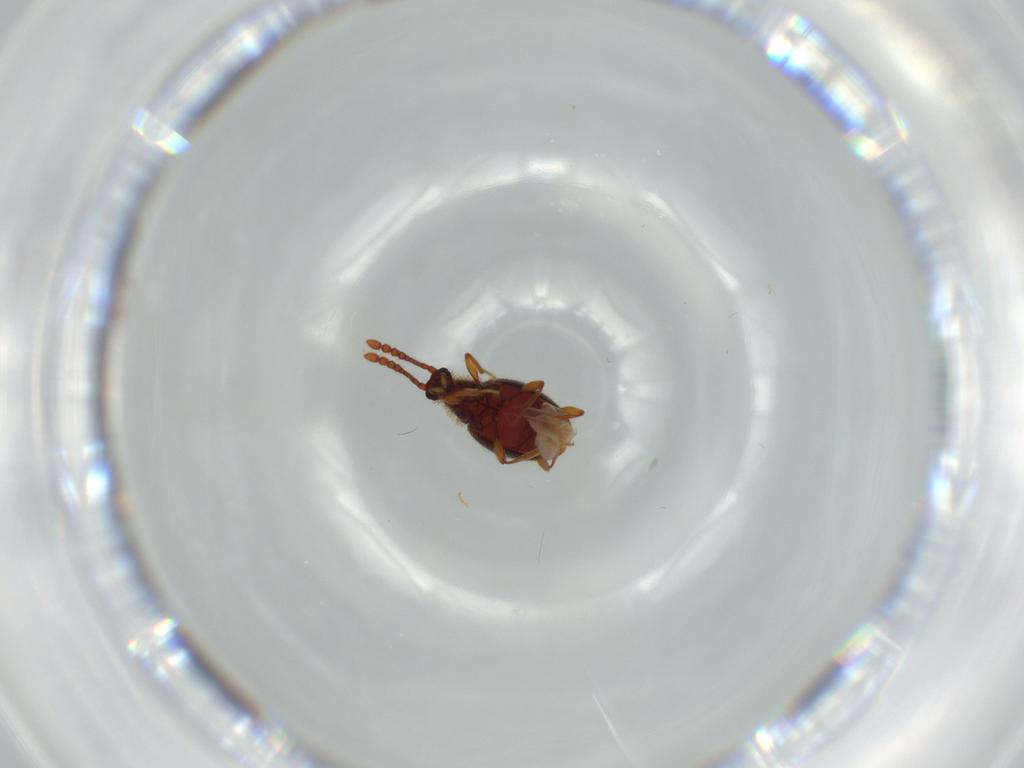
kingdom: Animalia
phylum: Arthropoda
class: Insecta
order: Coleoptera
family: Staphylinidae
